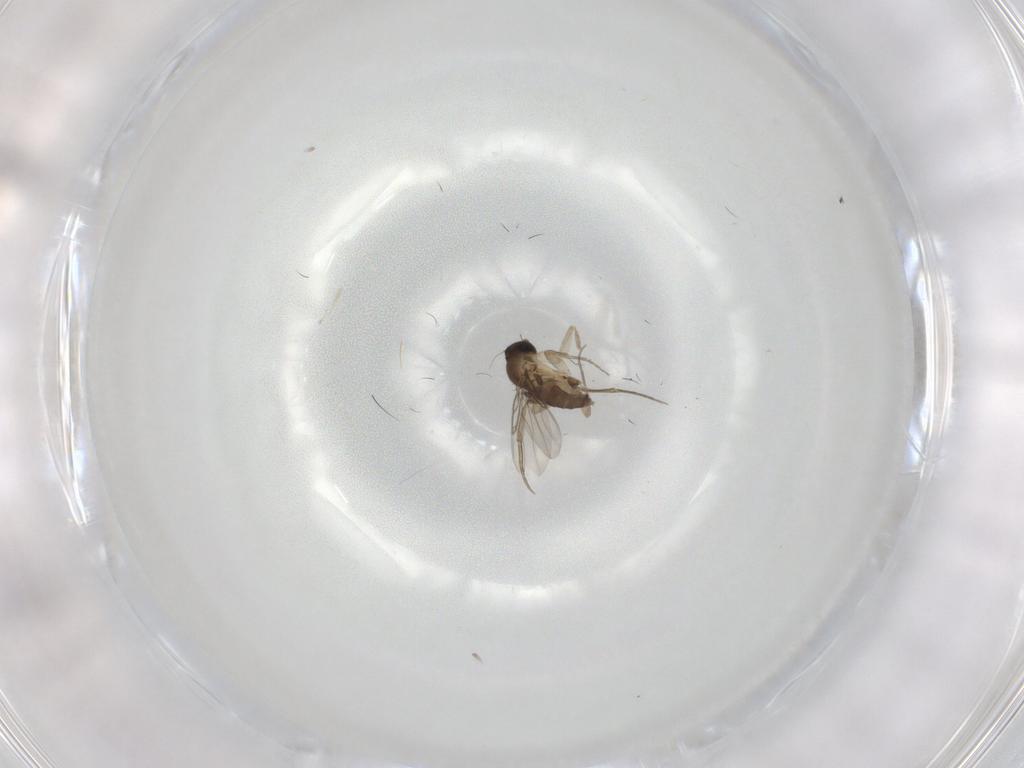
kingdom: Animalia
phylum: Arthropoda
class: Insecta
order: Diptera
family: Phoridae
